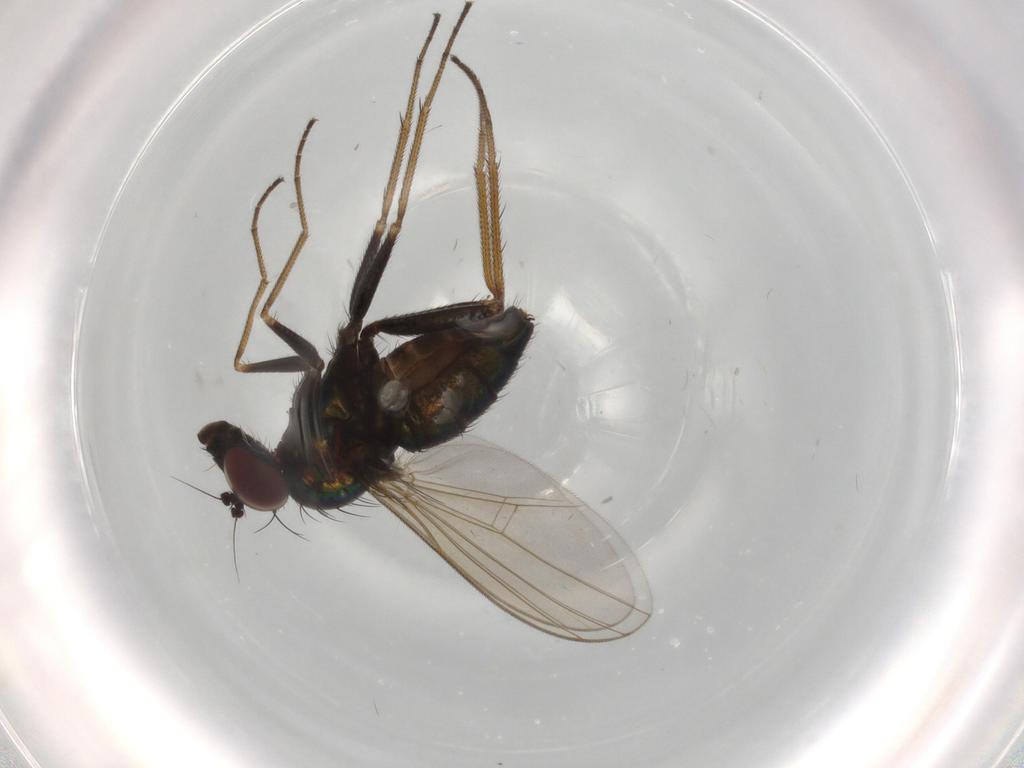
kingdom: Animalia
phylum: Arthropoda
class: Insecta
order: Diptera
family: Dolichopodidae
